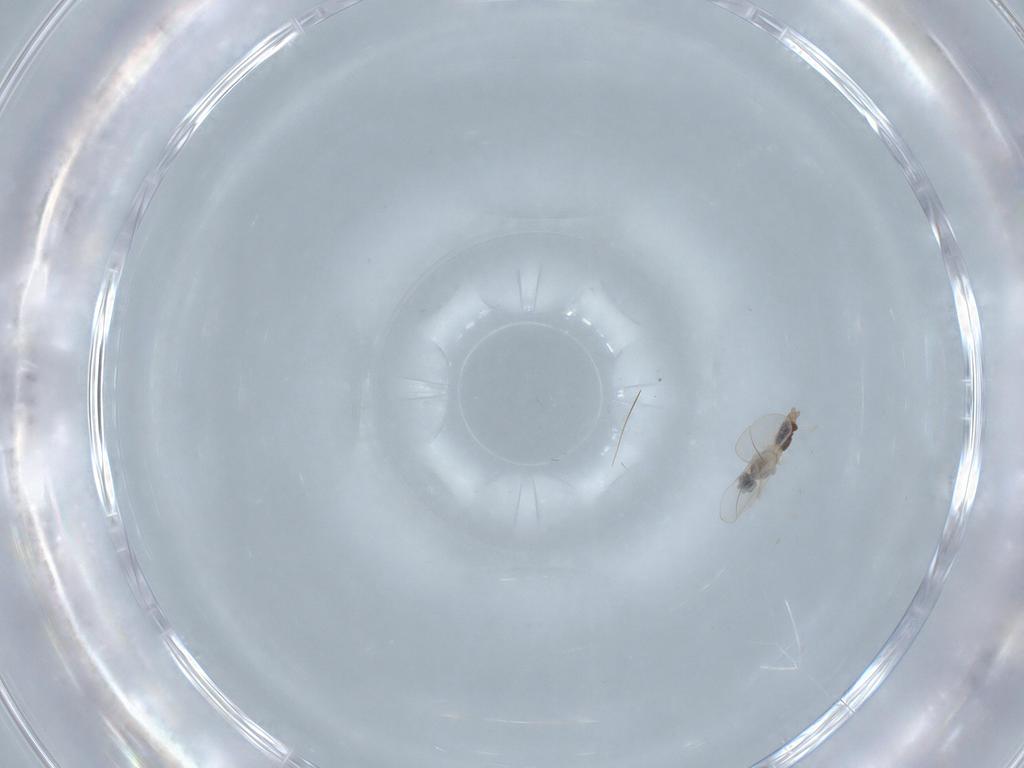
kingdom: Animalia
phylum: Arthropoda
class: Insecta
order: Diptera
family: Cecidomyiidae
